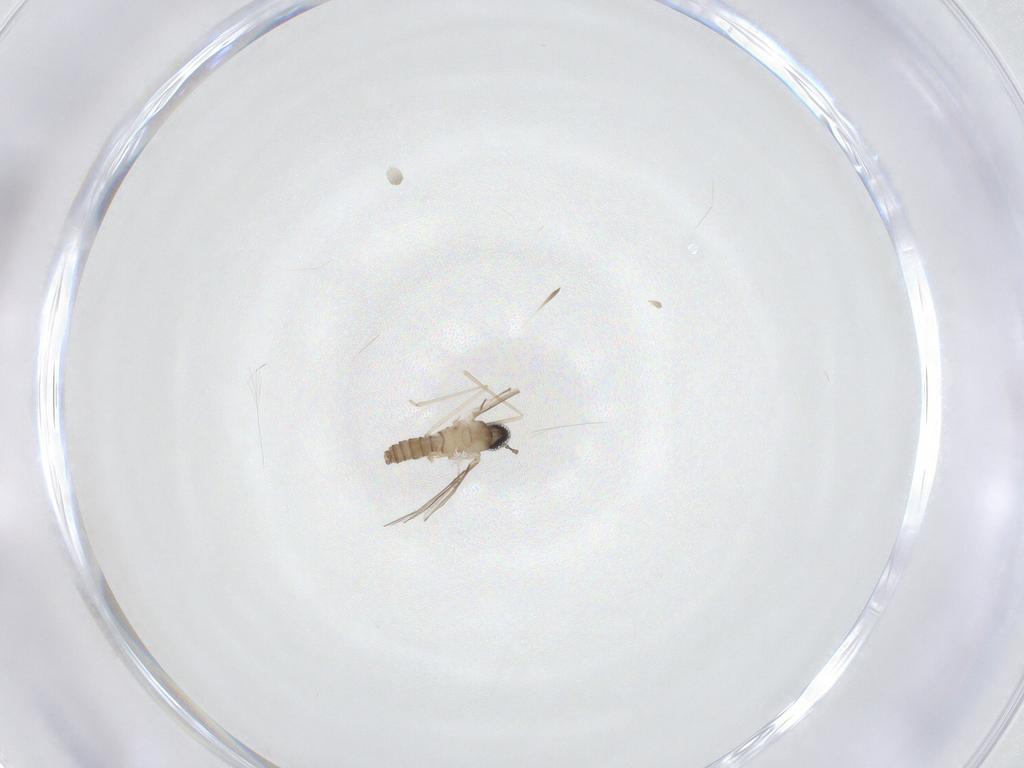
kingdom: Animalia
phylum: Arthropoda
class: Insecta
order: Diptera
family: Cecidomyiidae
